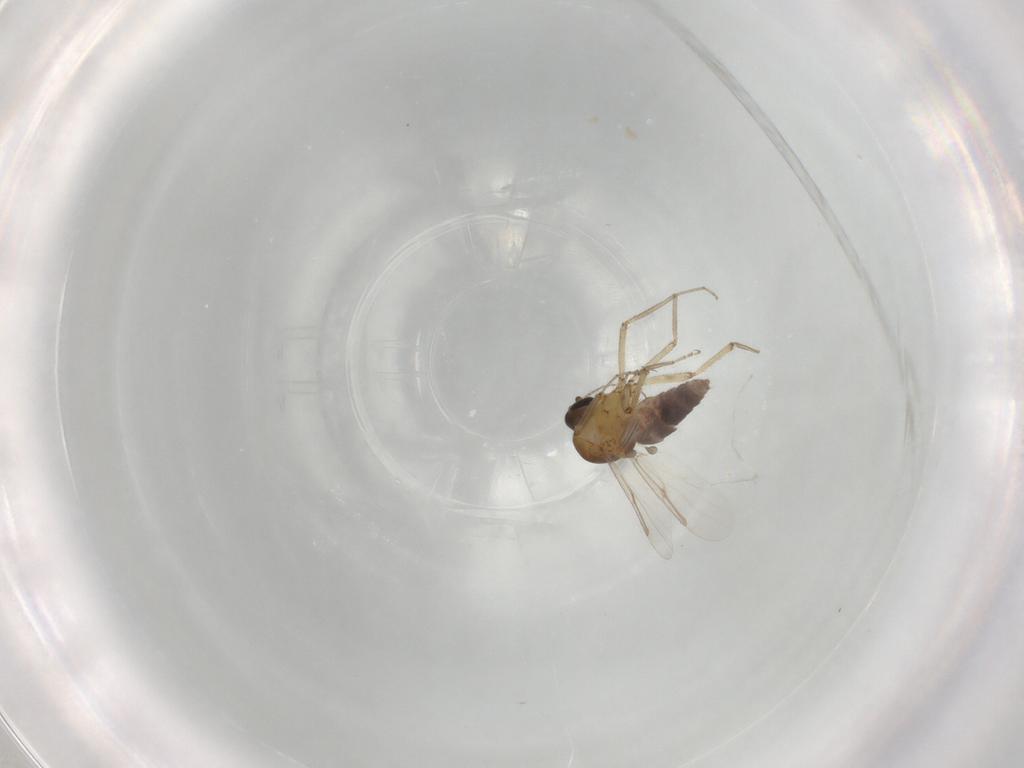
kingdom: Animalia
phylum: Arthropoda
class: Insecta
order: Diptera
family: Ceratopogonidae
